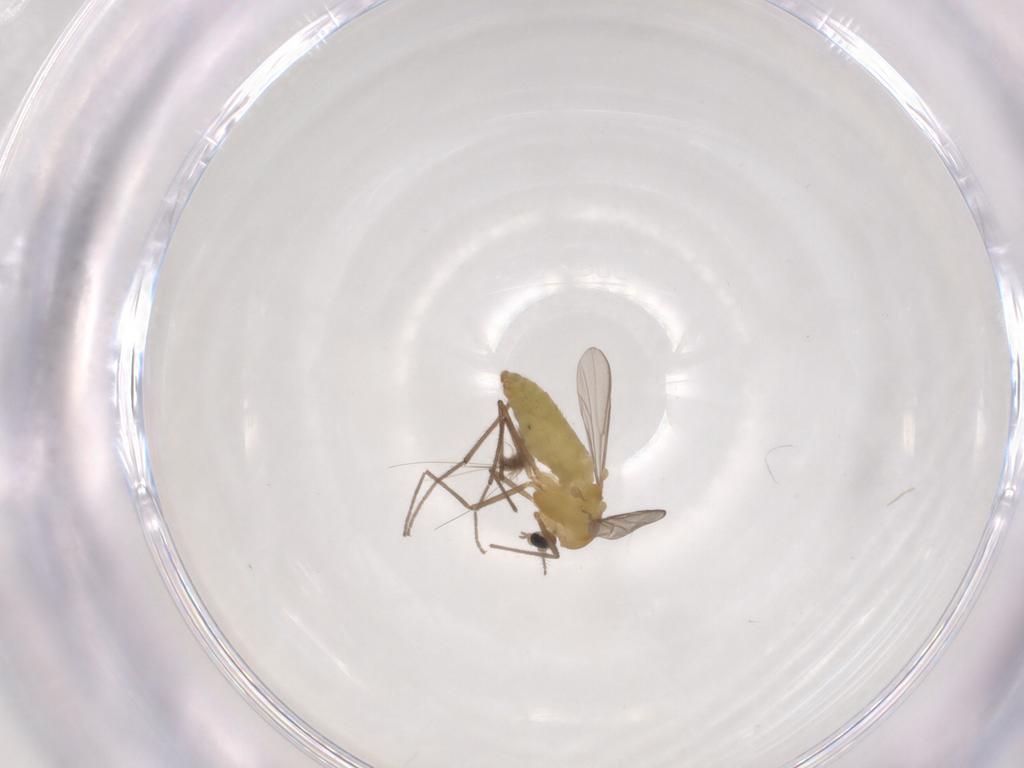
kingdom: Animalia
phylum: Arthropoda
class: Insecta
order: Diptera
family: Chironomidae
